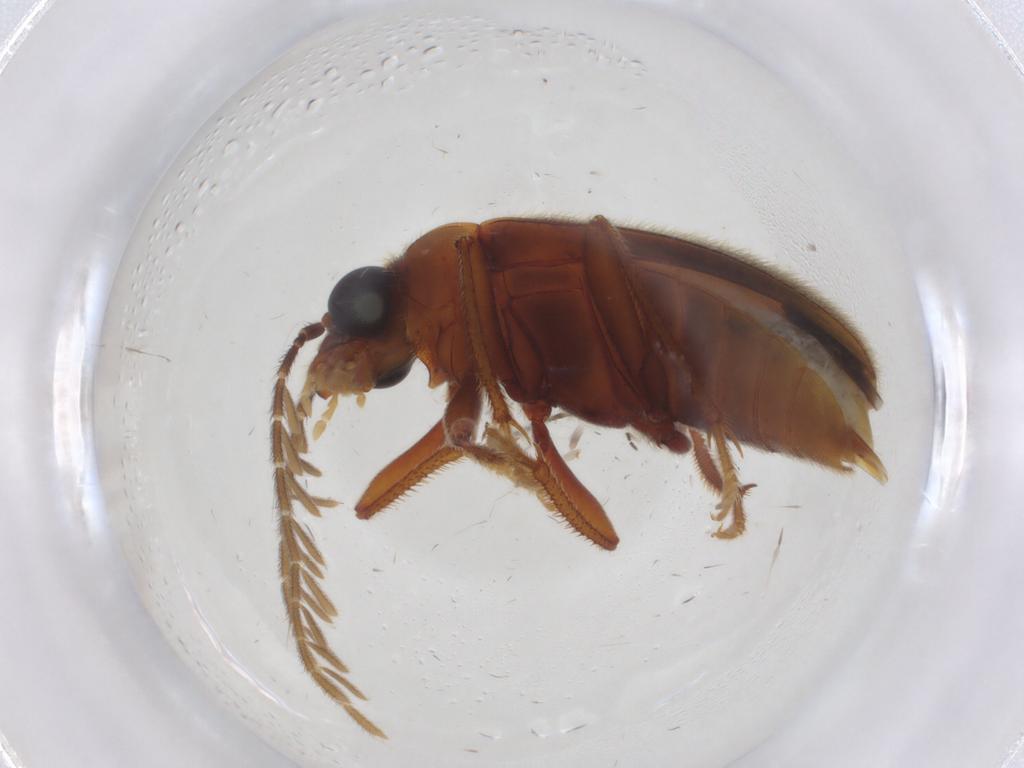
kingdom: Animalia
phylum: Arthropoda
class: Insecta
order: Coleoptera
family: Ptilodactylidae
